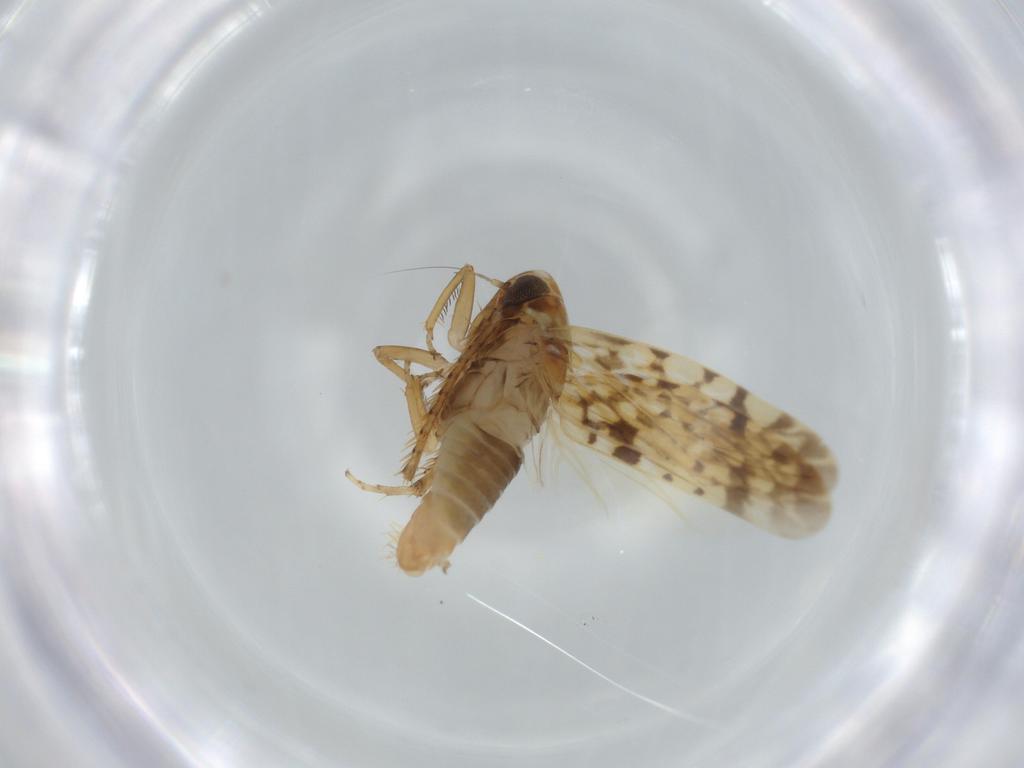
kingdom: Animalia
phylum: Arthropoda
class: Insecta
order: Hemiptera
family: Cicadellidae
